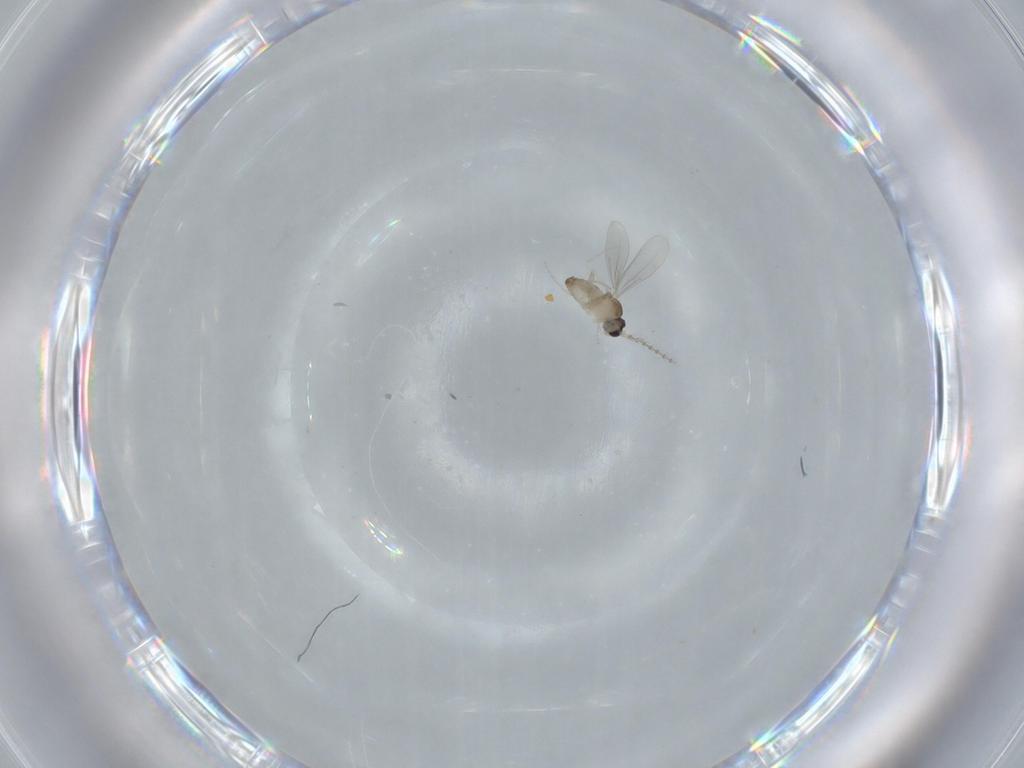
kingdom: Animalia
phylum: Arthropoda
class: Insecta
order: Diptera
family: Cecidomyiidae
